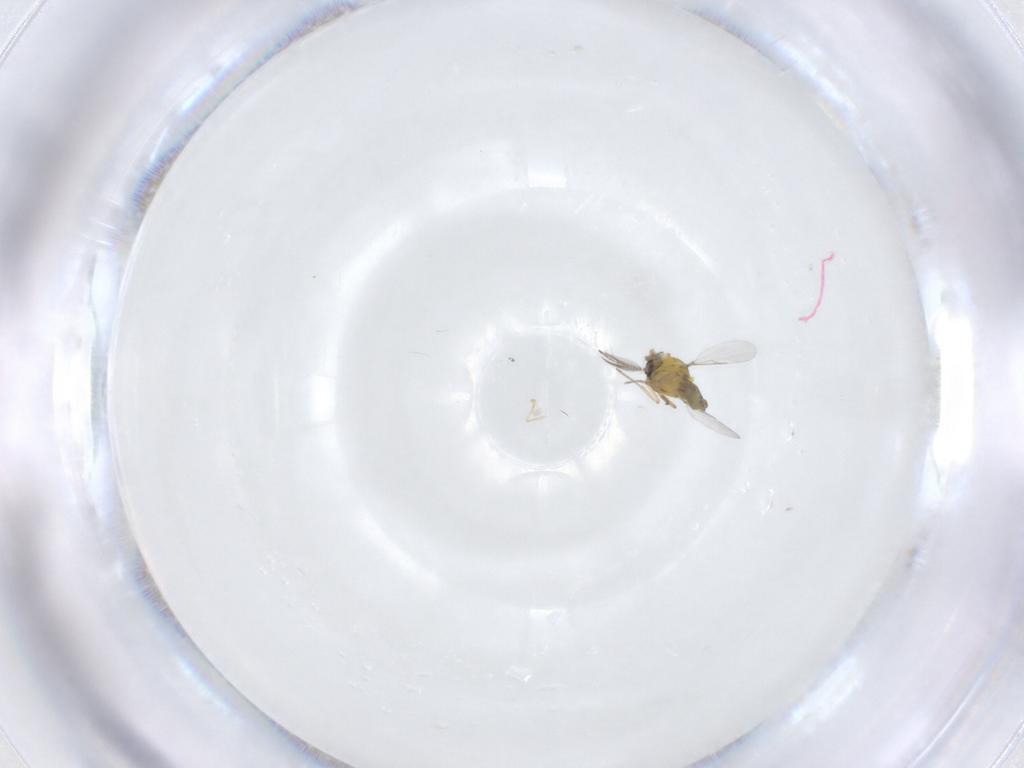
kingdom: Animalia
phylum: Arthropoda
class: Insecta
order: Diptera
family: Ceratopogonidae
